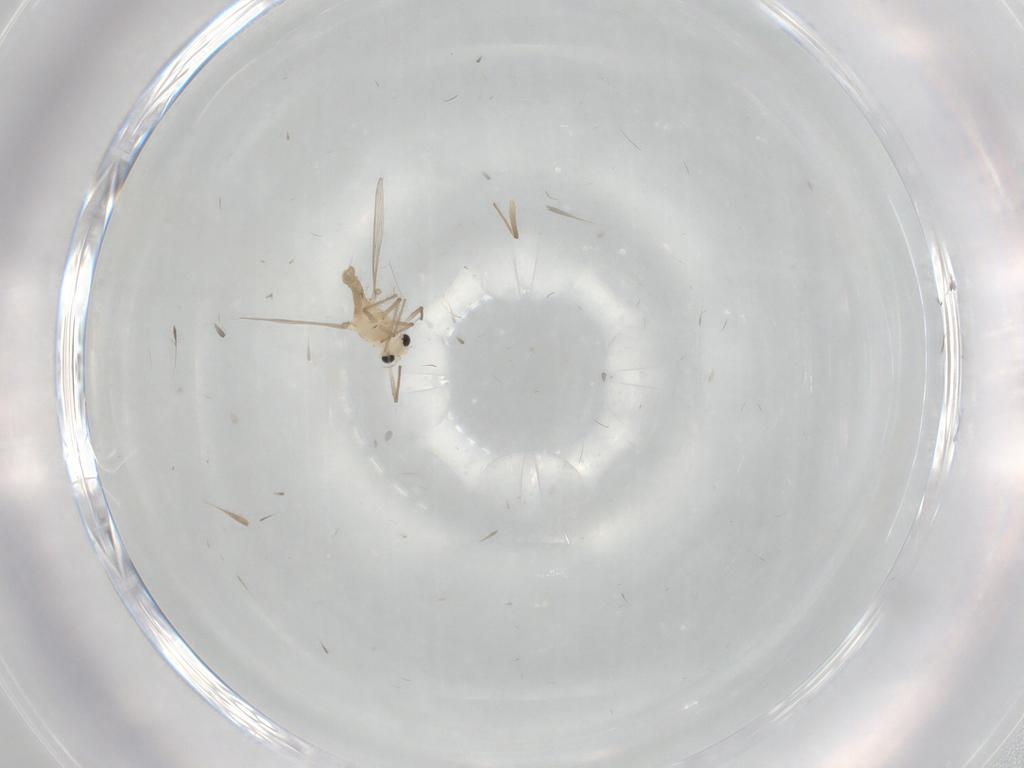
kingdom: Animalia
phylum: Arthropoda
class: Insecta
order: Diptera
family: Chironomidae
